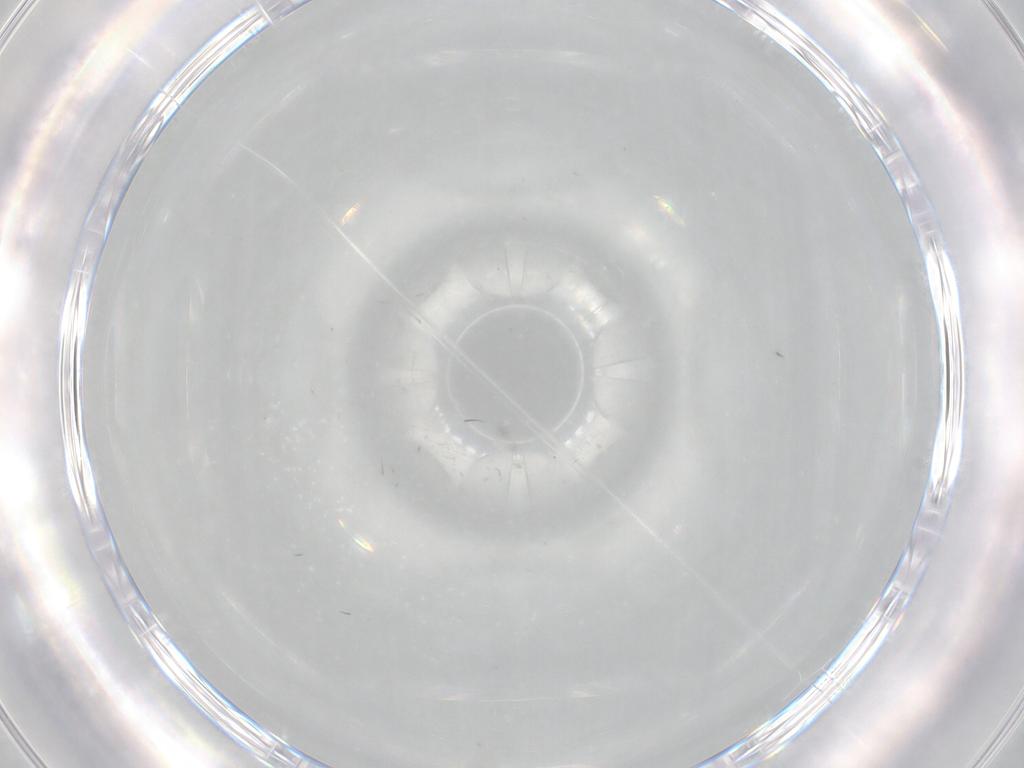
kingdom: Animalia
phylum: Arthropoda
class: Insecta
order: Diptera
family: Cecidomyiidae
